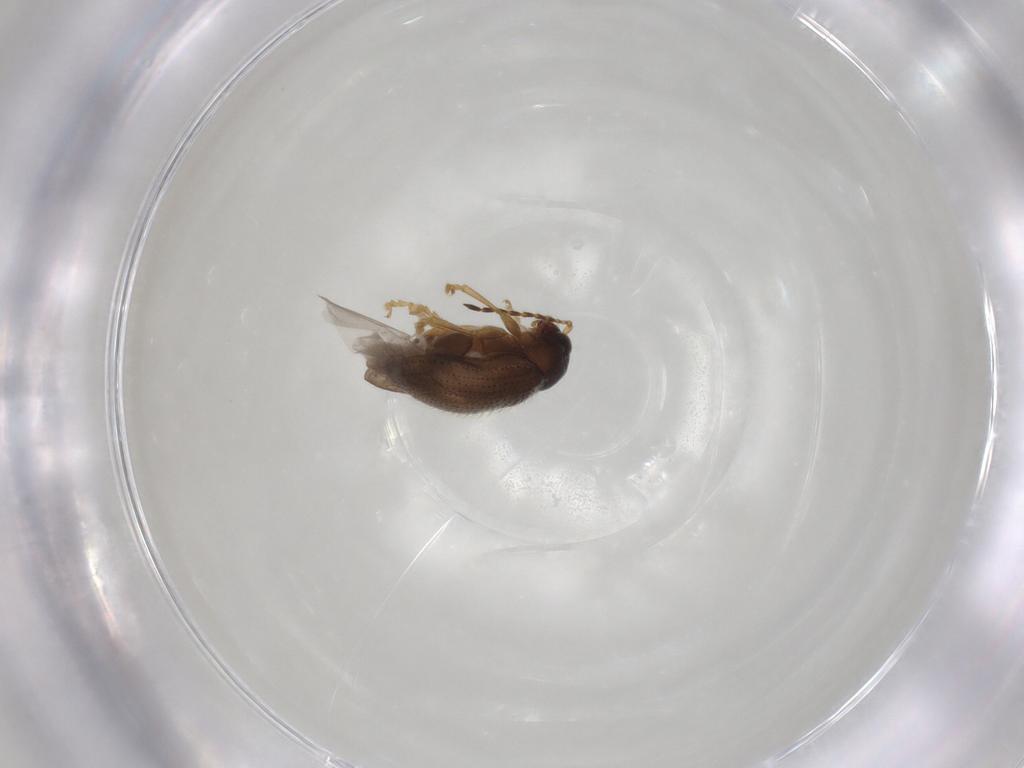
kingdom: Animalia
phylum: Arthropoda
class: Insecta
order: Coleoptera
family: Chrysomelidae
